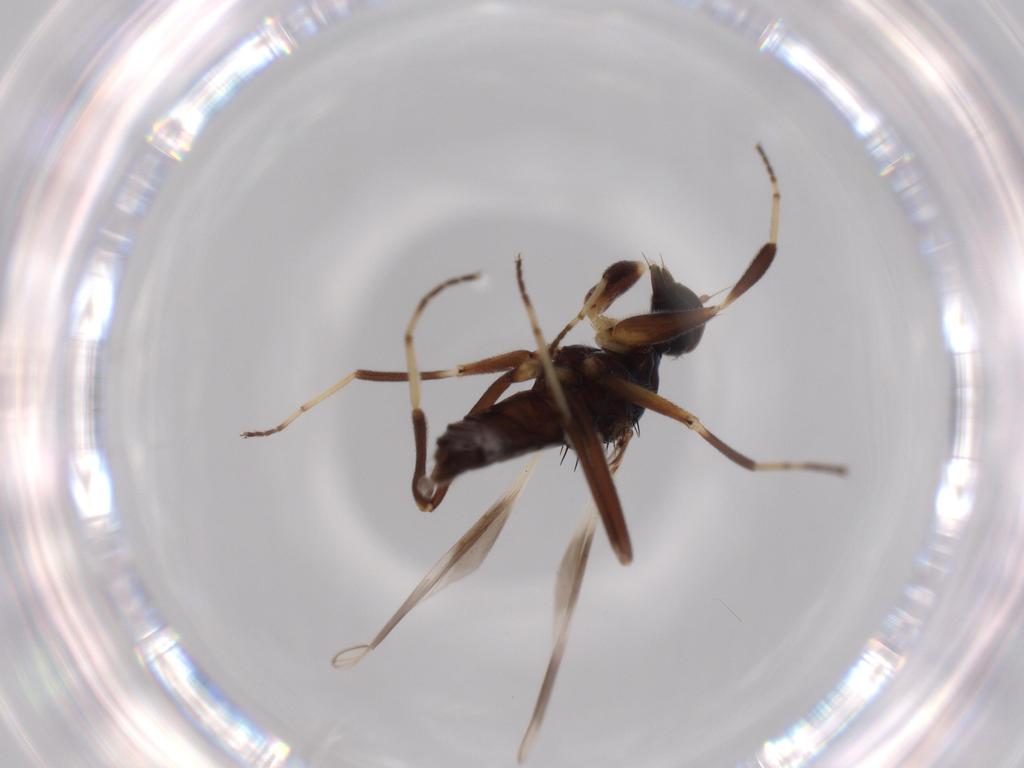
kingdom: Animalia
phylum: Arthropoda
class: Insecta
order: Diptera
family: Hybotidae
